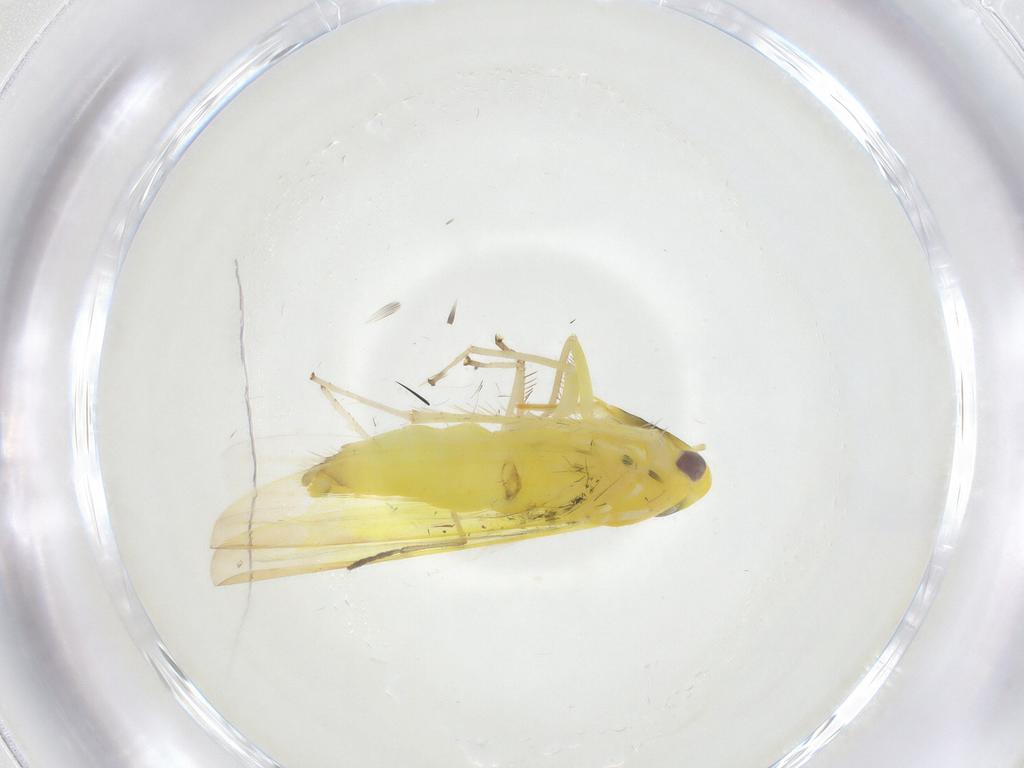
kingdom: Animalia
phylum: Arthropoda
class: Insecta
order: Hemiptera
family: Cicadellidae
